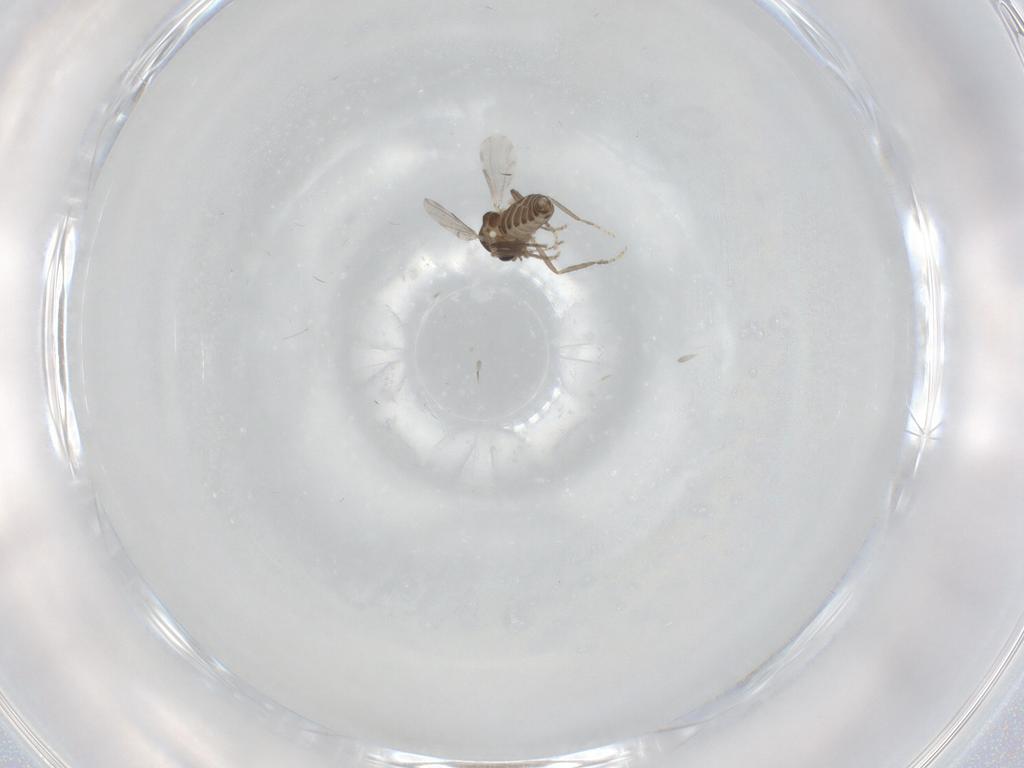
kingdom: Animalia
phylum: Arthropoda
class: Insecta
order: Diptera
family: Ceratopogonidae
